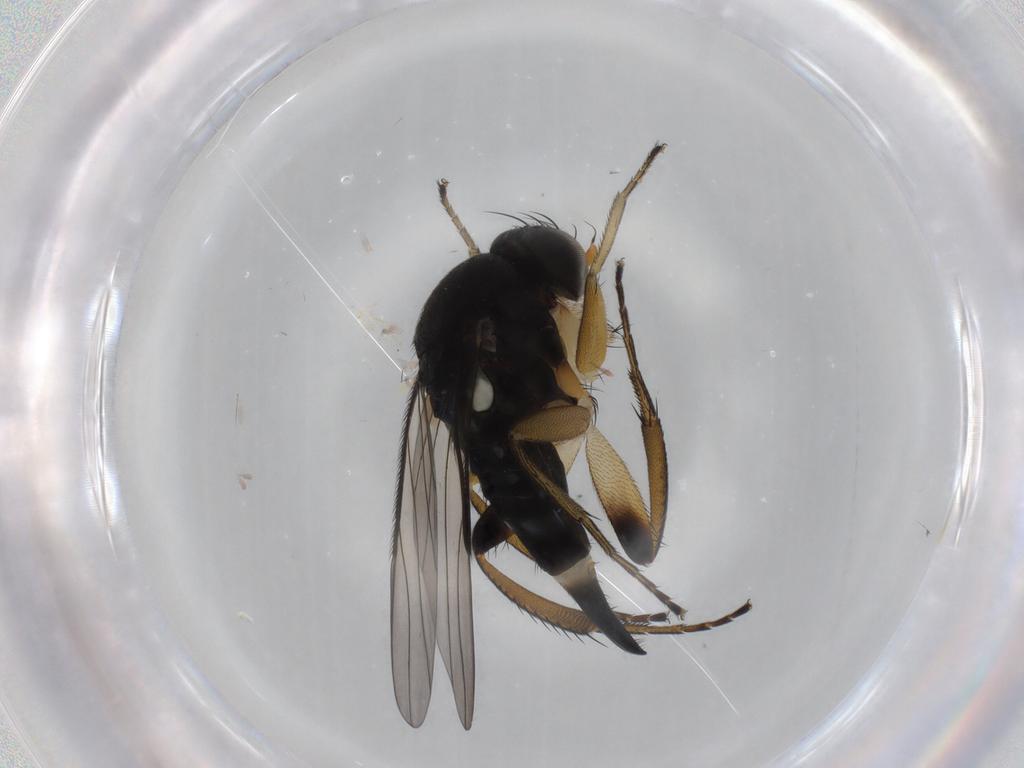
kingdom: Animalia
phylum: Arthropoda
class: Insecta
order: Diptera
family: Phoridae
